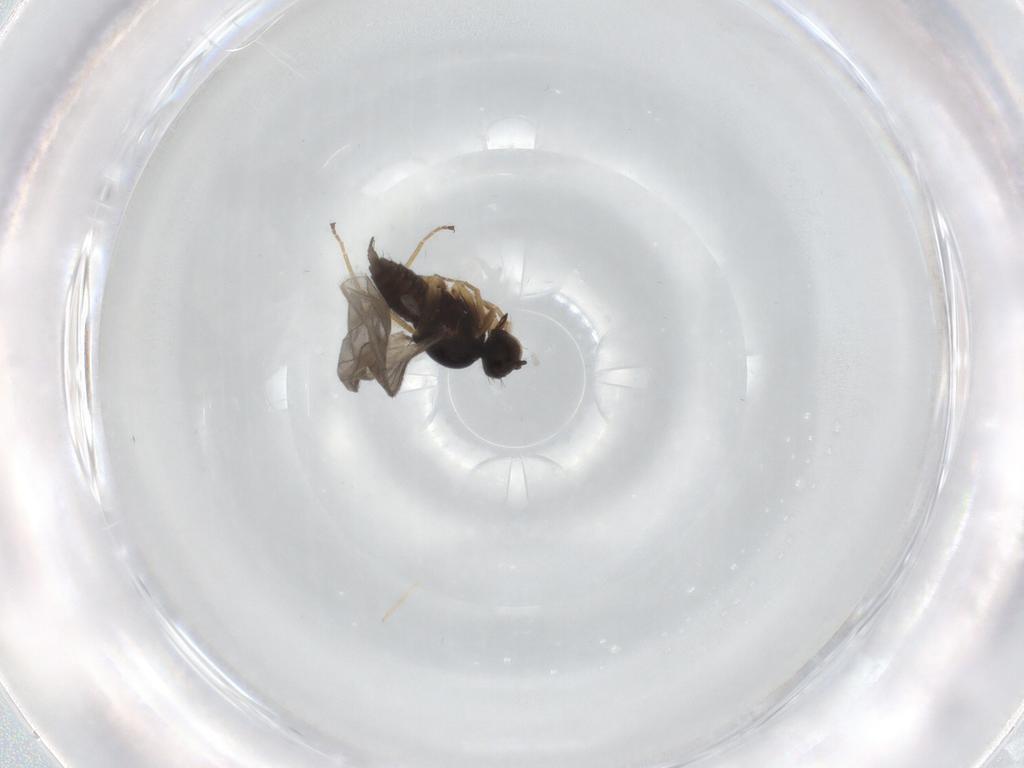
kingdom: Animalia
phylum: Arthropoda
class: Insecta
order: Diptera
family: Hybotidae
